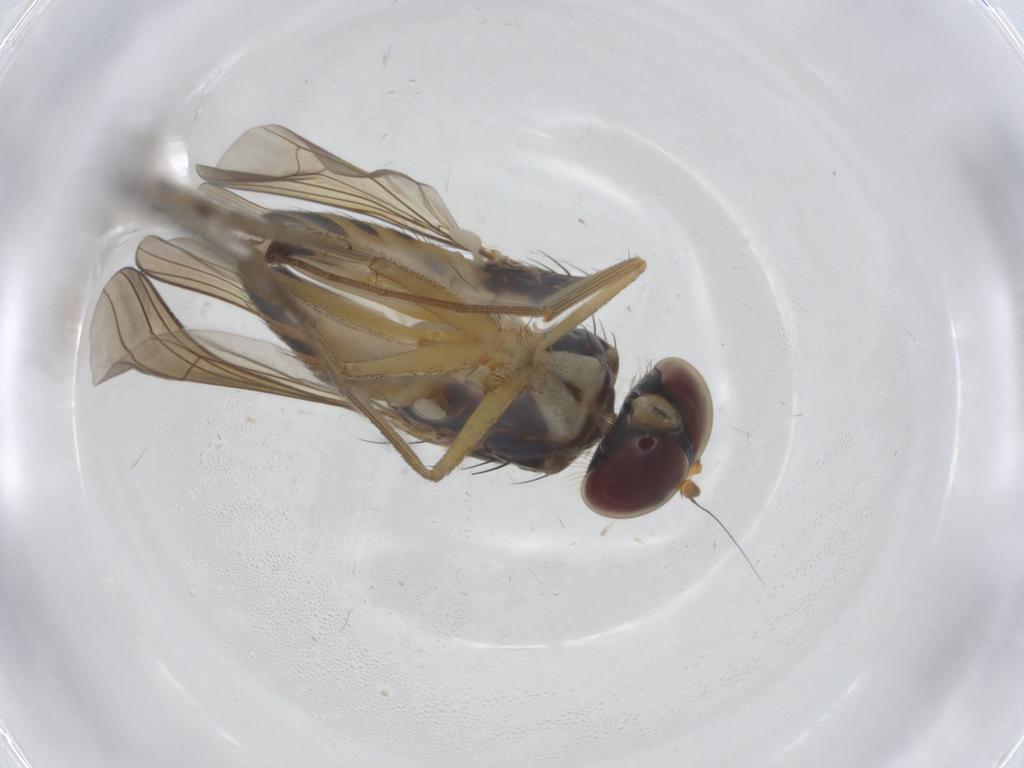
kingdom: Animalia
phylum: Arthropoda
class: Insecta
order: Diptera
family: Dolichopodidae
